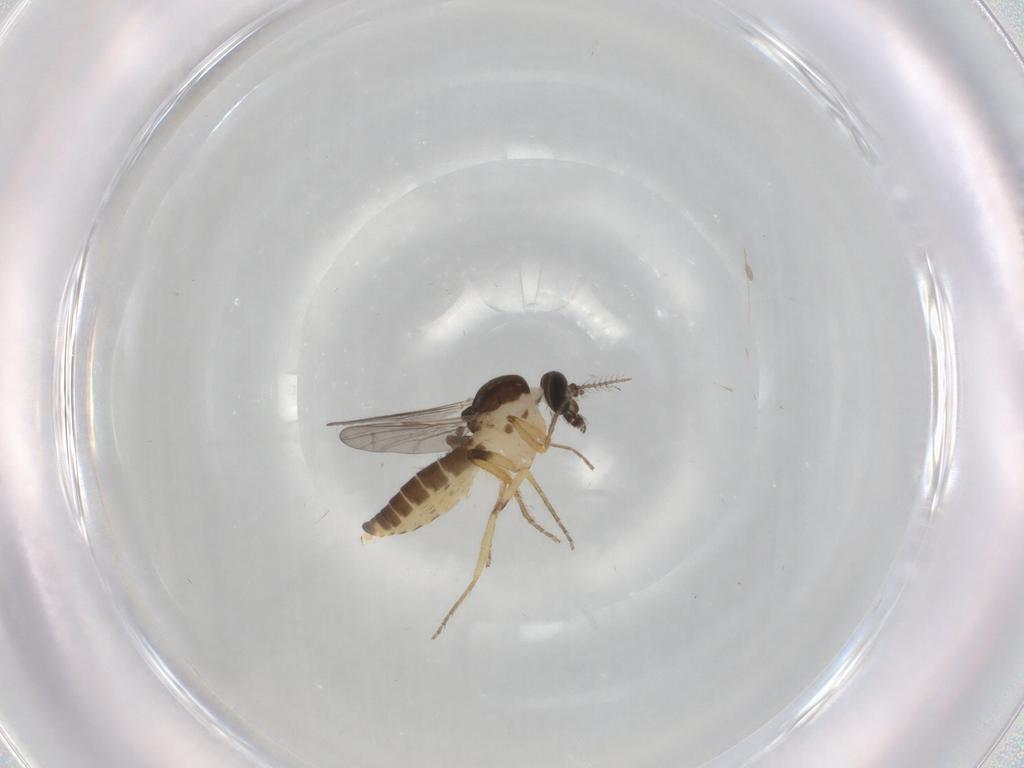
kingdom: Animalia
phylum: Arthropoda
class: Insecta
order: Diptera
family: Ceratopogonidae
